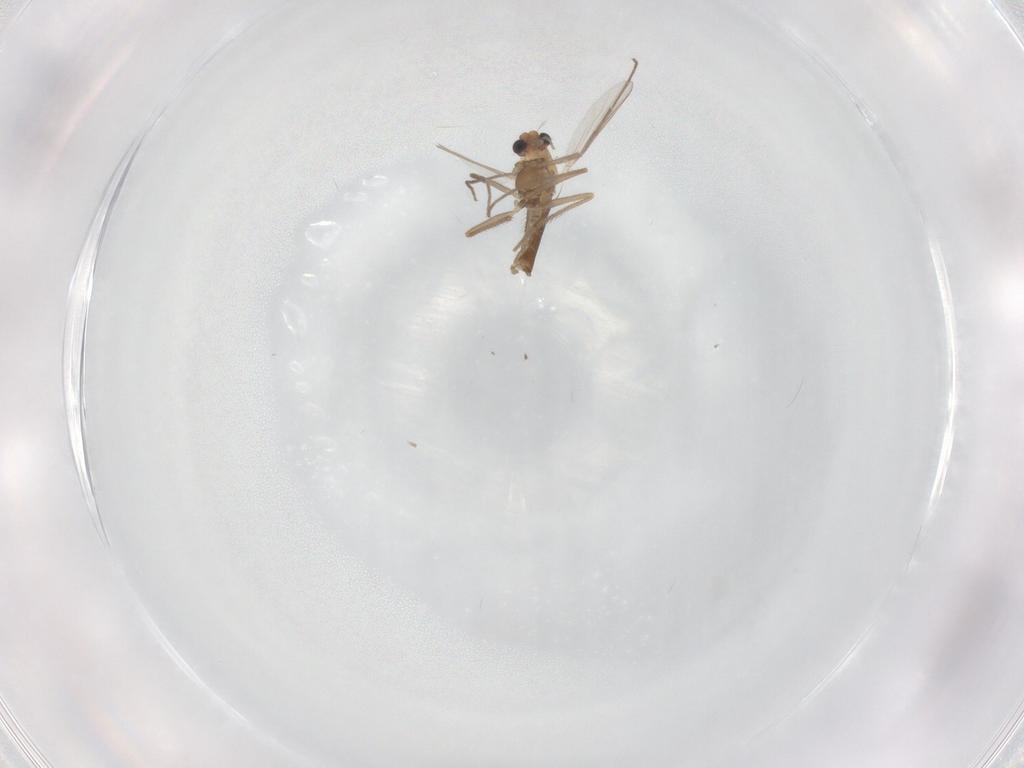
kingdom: Animalia
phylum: Arthropoda
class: Insecta
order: Diptera
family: Chironomidae
